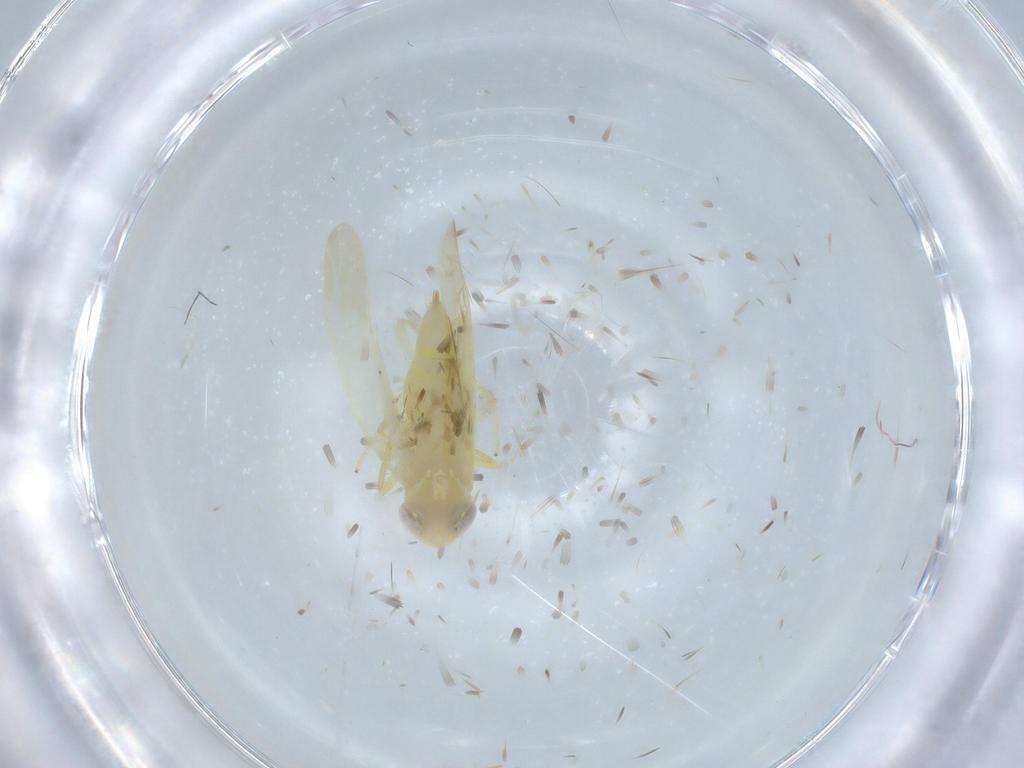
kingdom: Animalia
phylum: Arthropoda
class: Insecta
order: Hemiptera
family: Cicadellidae
